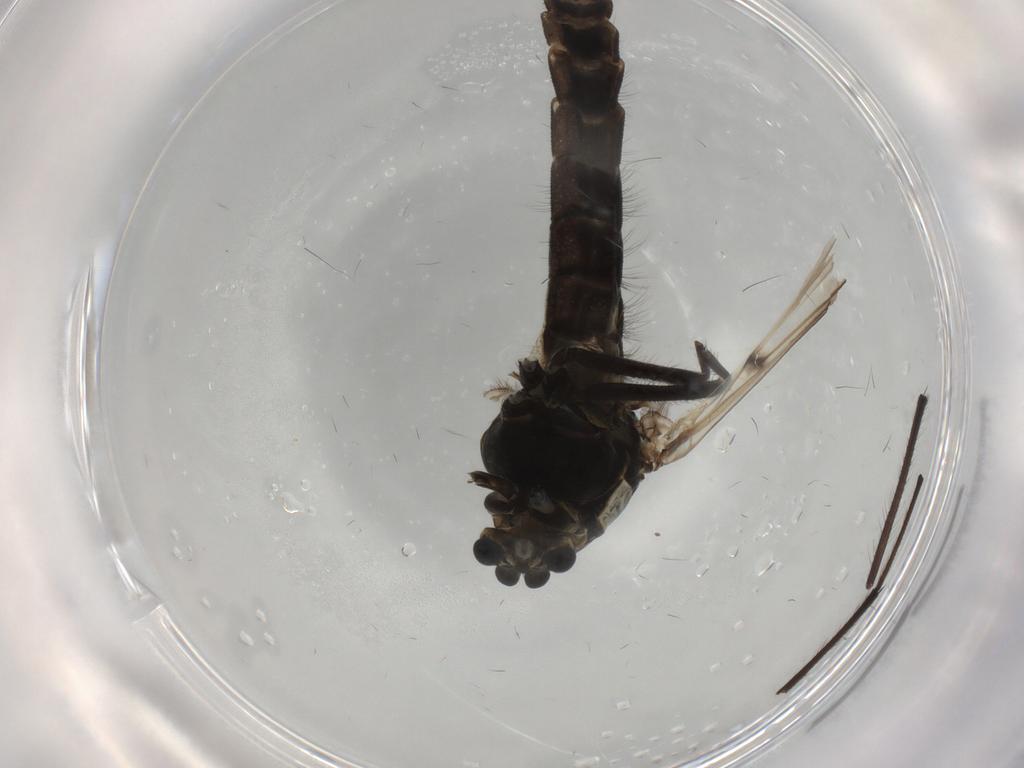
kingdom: Animalia
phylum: Arthropoda
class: Insecta
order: Diptera
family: Chironomidae
